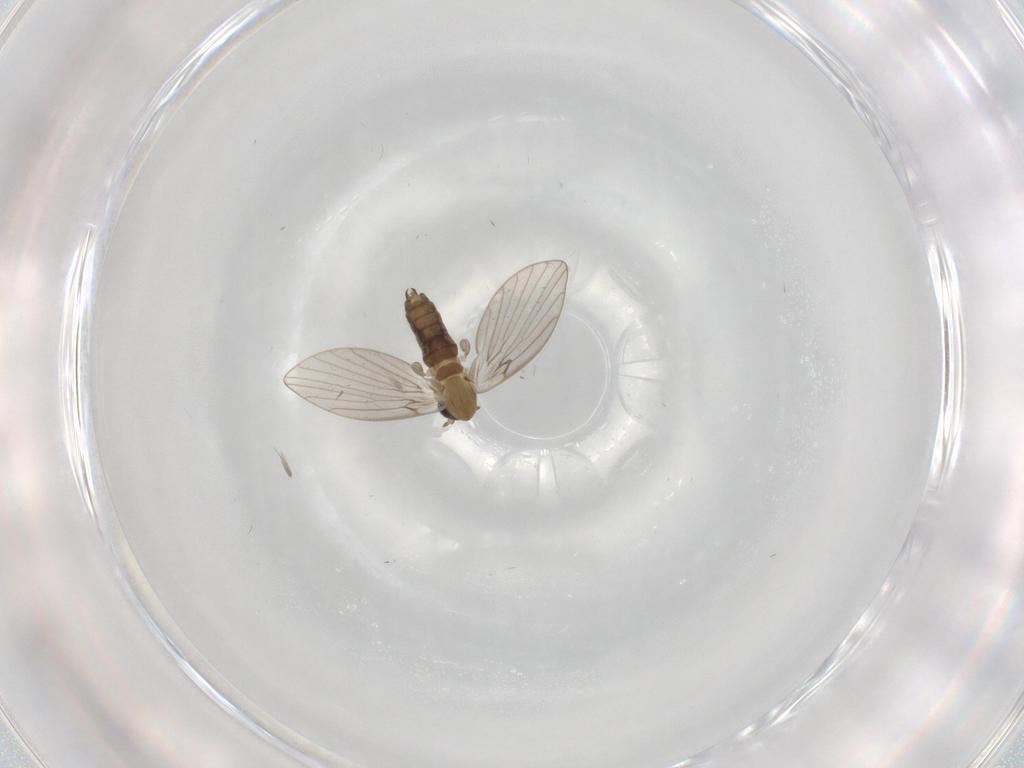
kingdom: Animalia
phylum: Arthropoda
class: Insecta
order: Diptera
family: Psychodidae
